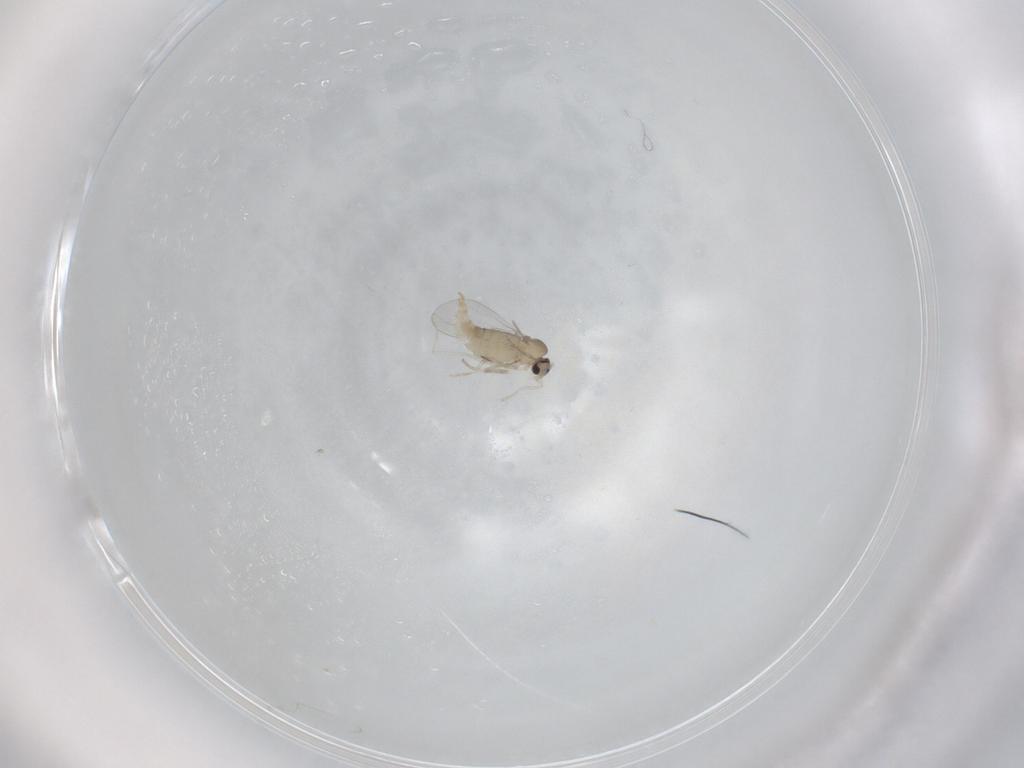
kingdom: Animalia
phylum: Arthropoda
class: Insecta
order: Diptera
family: Cecidomyiidae
